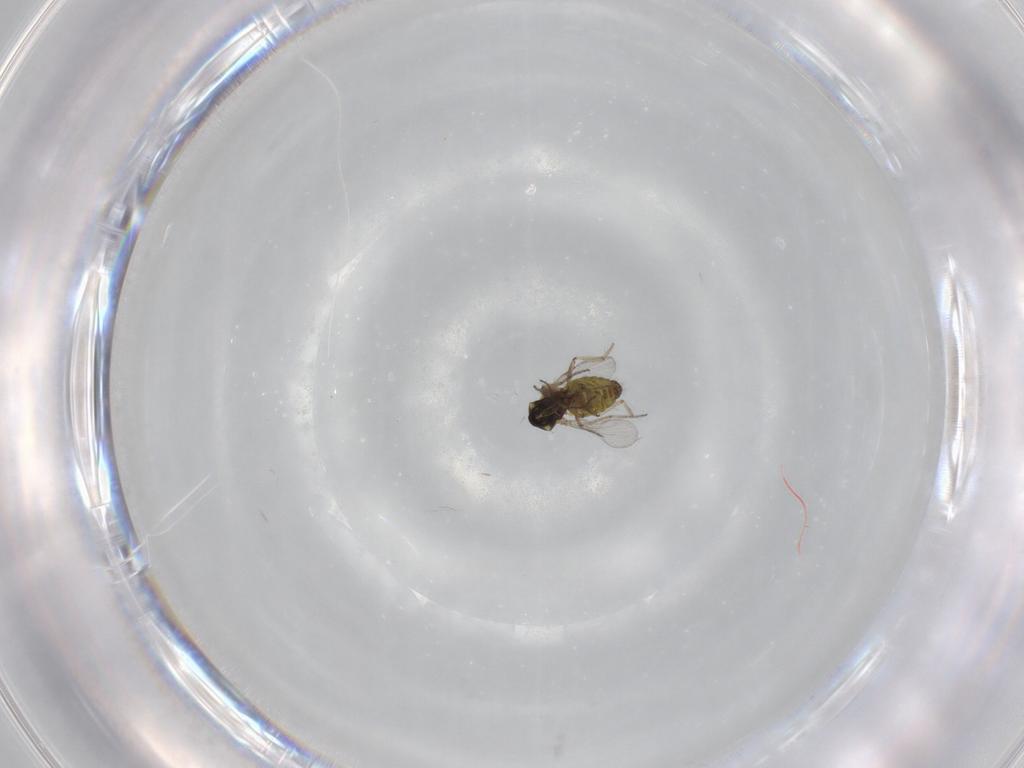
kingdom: Animalia
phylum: Arthropoda
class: Insecta
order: Diptera
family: Ceratopogonidae
